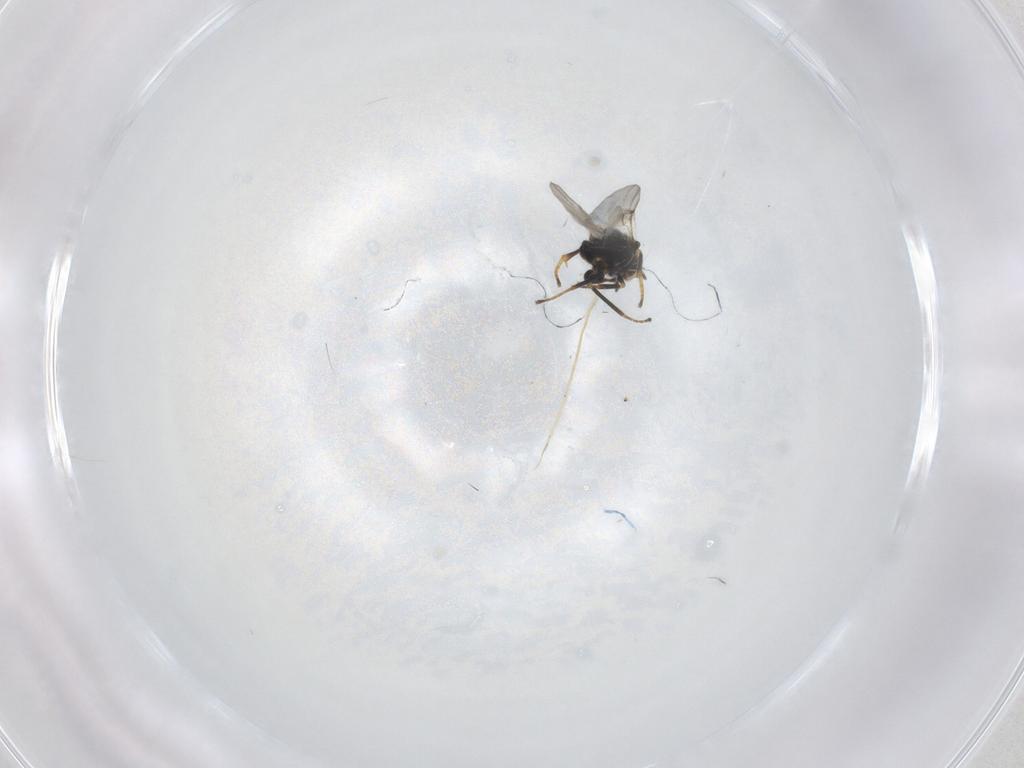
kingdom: Animalia
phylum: Arthropoda
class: Insecta
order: Hymenoptera
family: Encyrtidae
